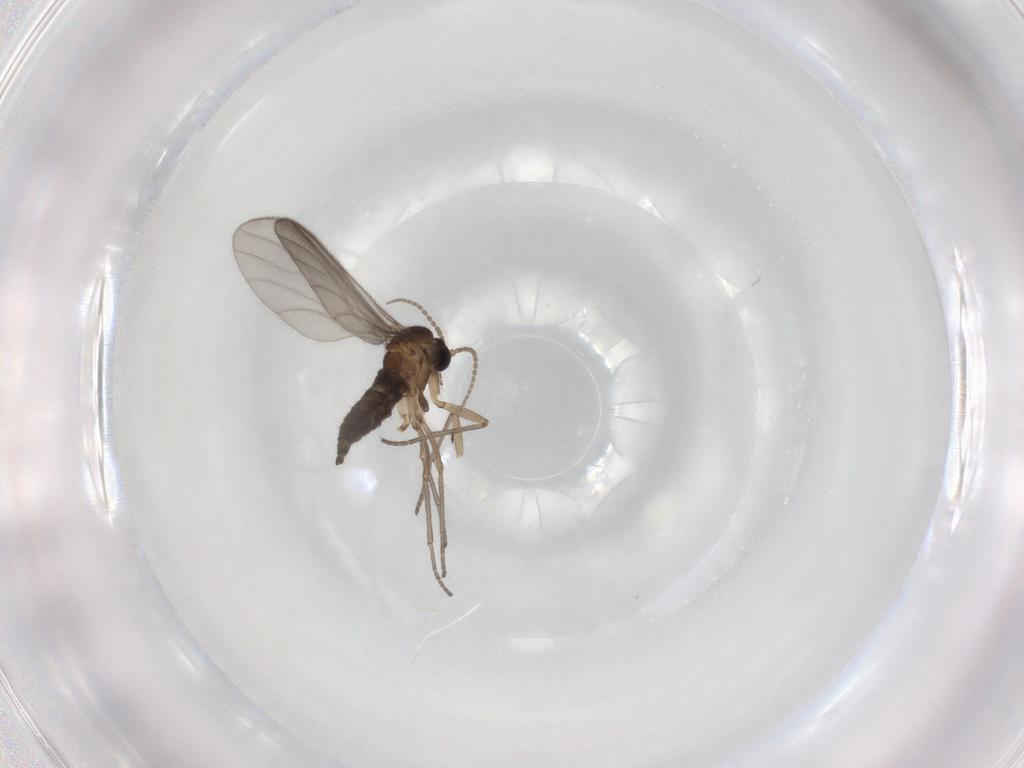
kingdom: Animalia
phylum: Arthropoda
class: Insecta
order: Diptera
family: Sciaridae
